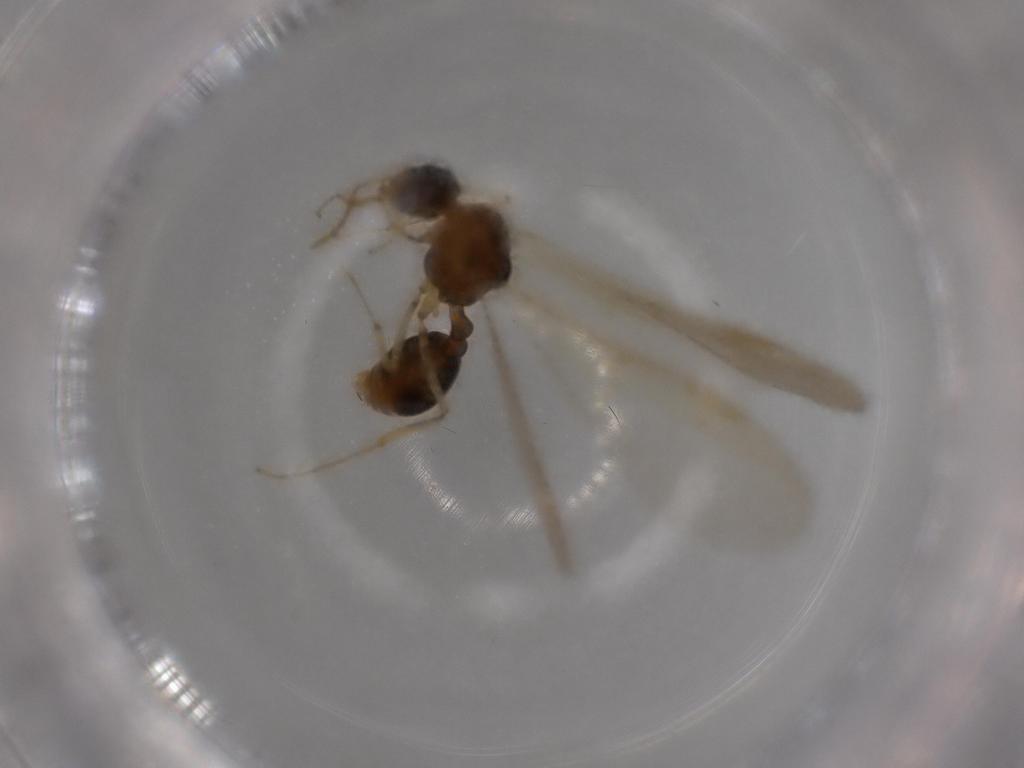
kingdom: Animalia
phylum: Arthropoda
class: Insecta
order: Hymenoptera
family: Formicidae
